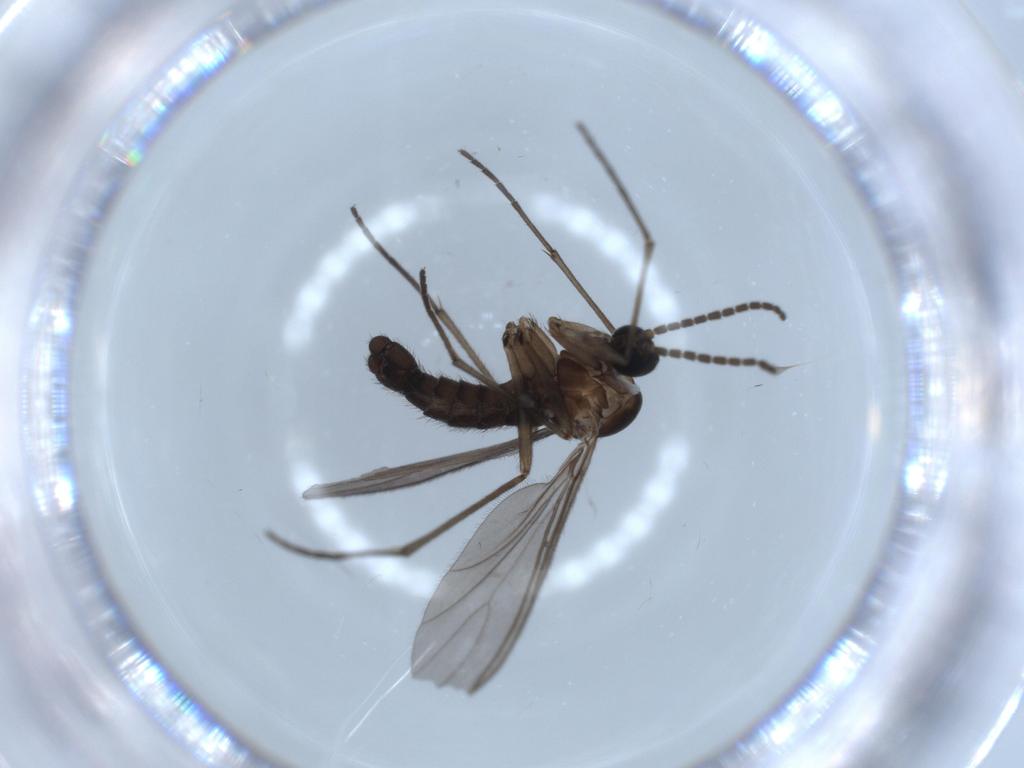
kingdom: Animalia
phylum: Arthropoda
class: Insecta
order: Diptera
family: Sciaridae
